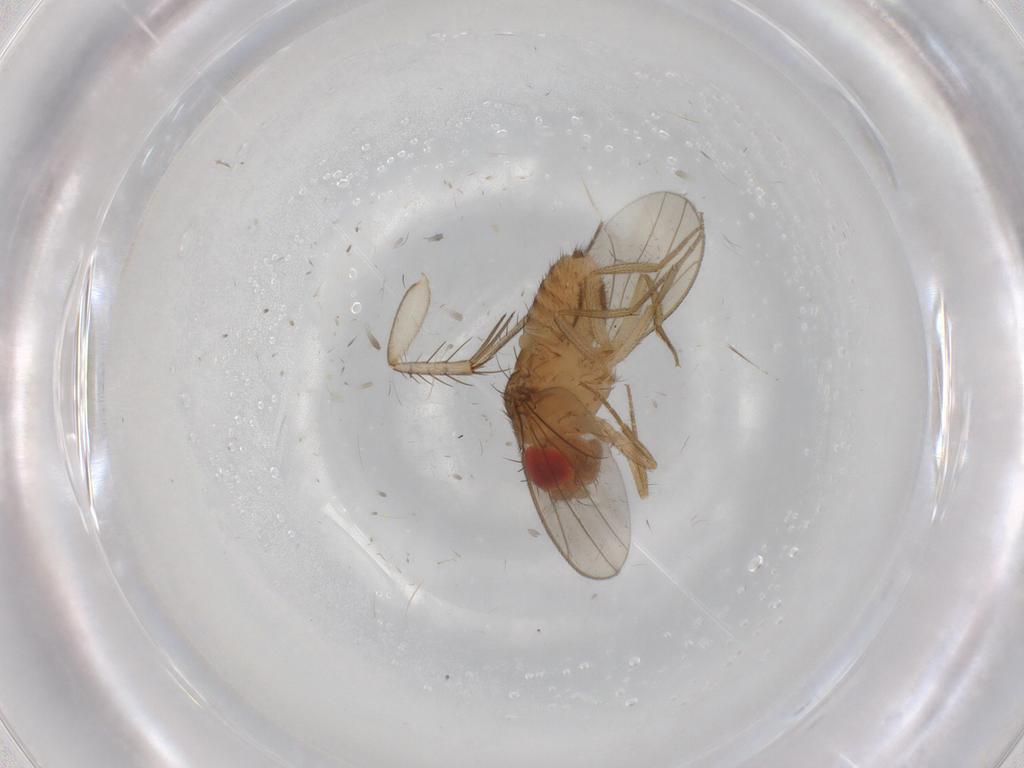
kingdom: Animalia
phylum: Arthropoda
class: Insecta
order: Diptera
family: Drosophilidae
